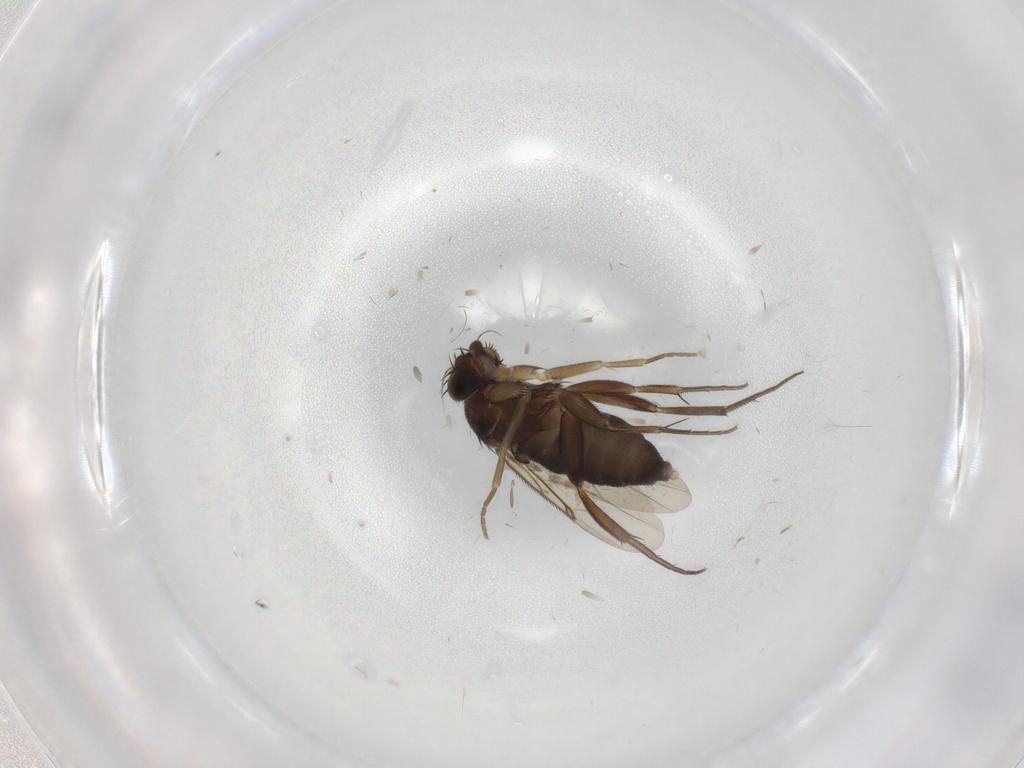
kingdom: Animalia
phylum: Arthropoda
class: Insecta
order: Diptera
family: Phoridae
